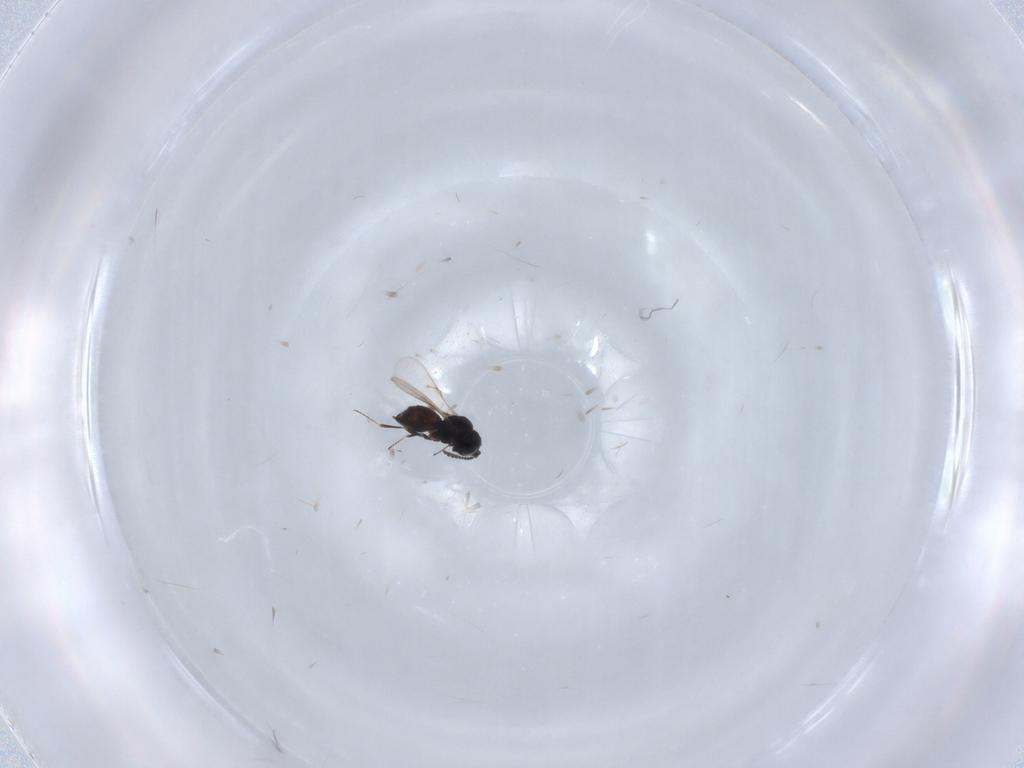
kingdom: Animalia
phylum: Arthropoda
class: Insecta
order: Hymenoptera
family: Scelionidae
